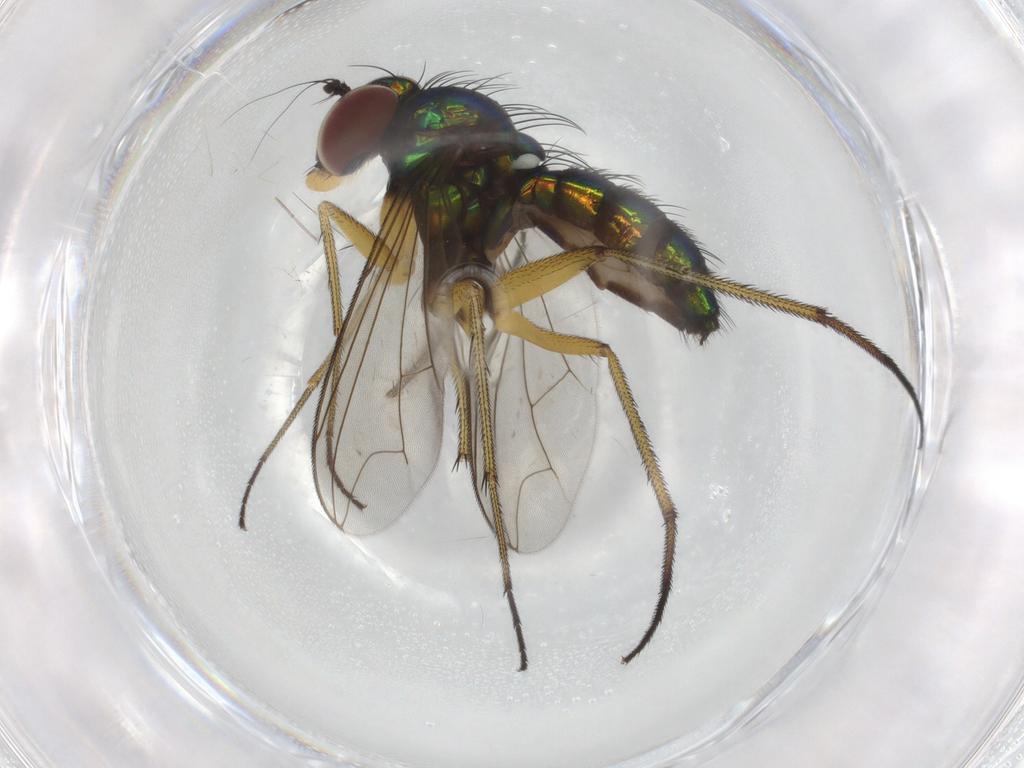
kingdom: Animalia
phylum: Arthropoda
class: Insecta
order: Diptera
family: Dolichopodidae
